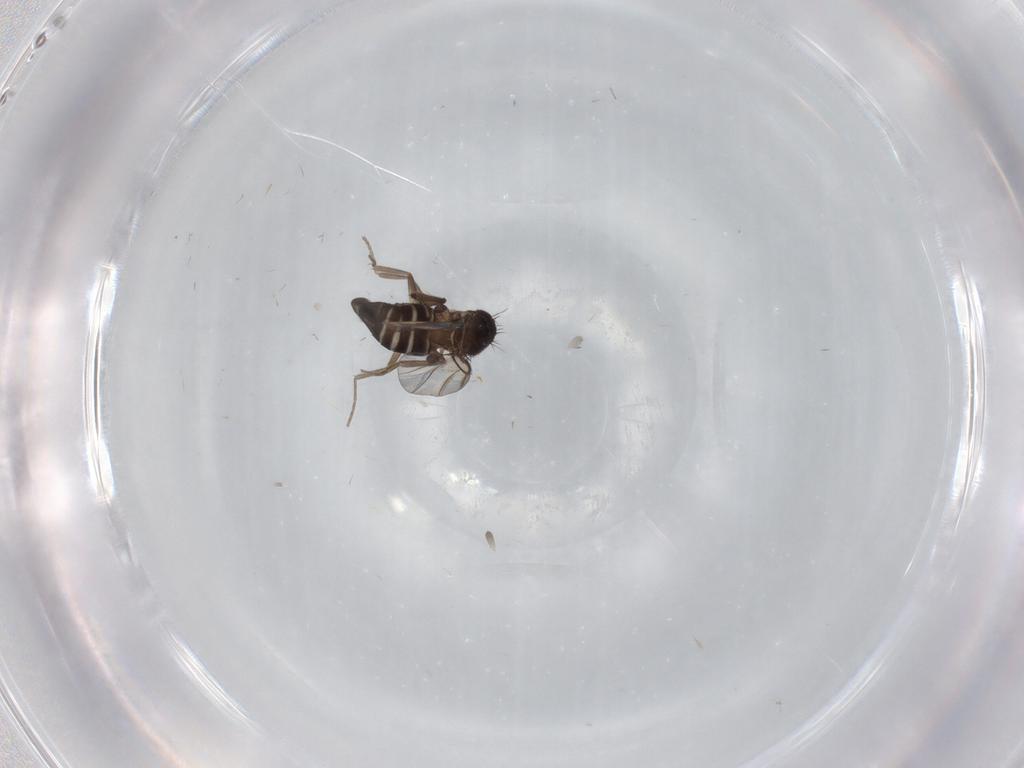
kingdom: Animalia
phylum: Arthropoda
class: Insecta
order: Diptera
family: Phoridae
